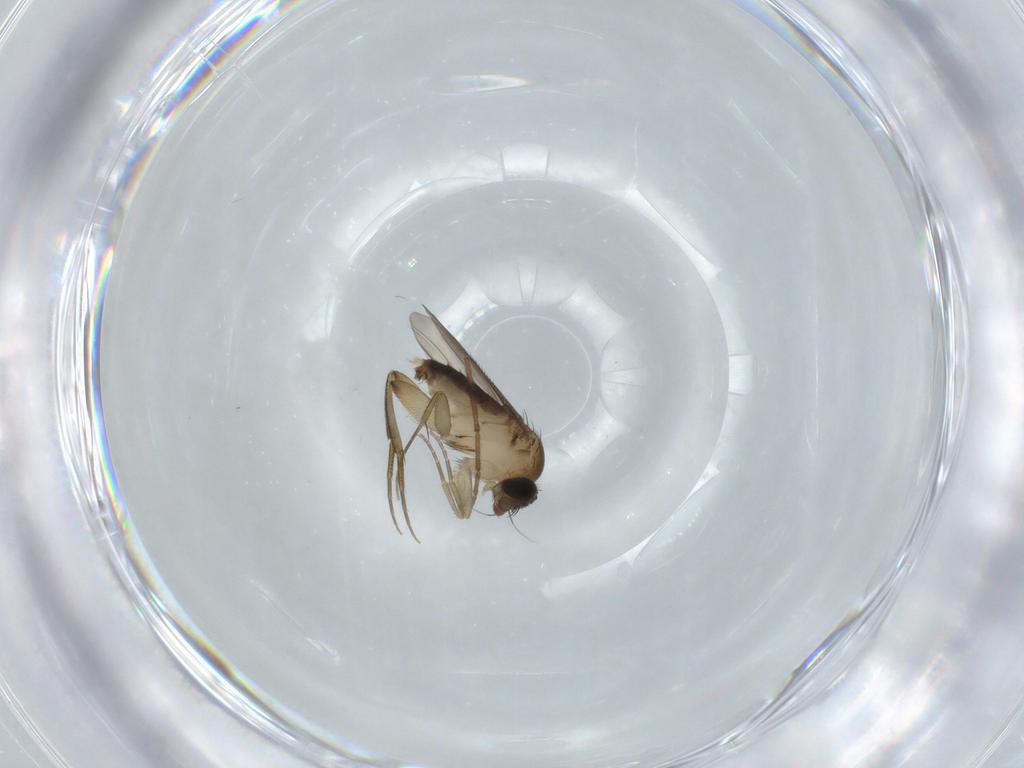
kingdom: Animalia
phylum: Arthropoda
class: Insecta
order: Diptera
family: Phoridae
